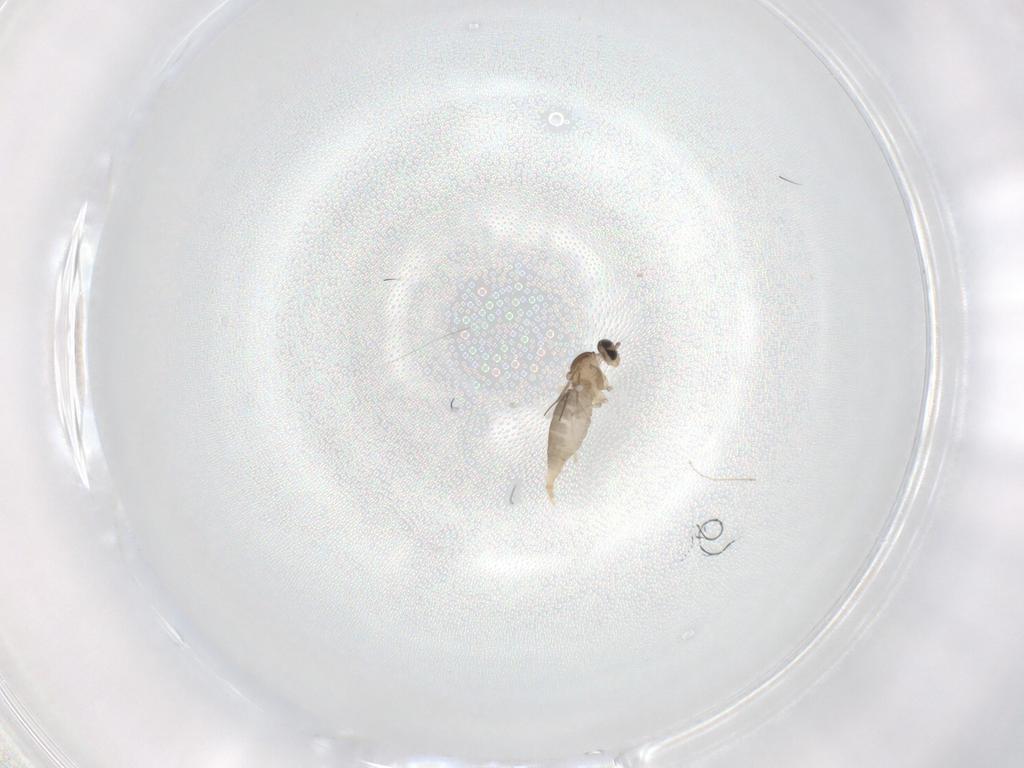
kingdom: Animalia
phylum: Arthropoda
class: Insecta
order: Diptera
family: Cecidomyiidae
